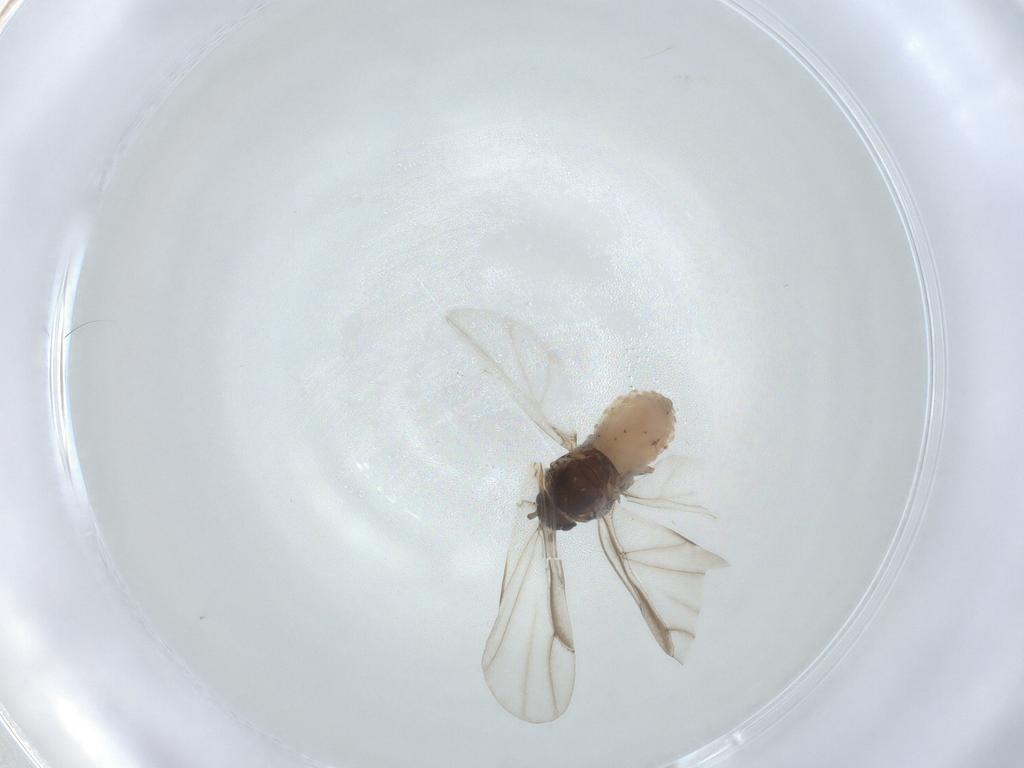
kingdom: Animalia
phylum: Arthropoda
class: Insecta
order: Hemiptera
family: Aphididae
